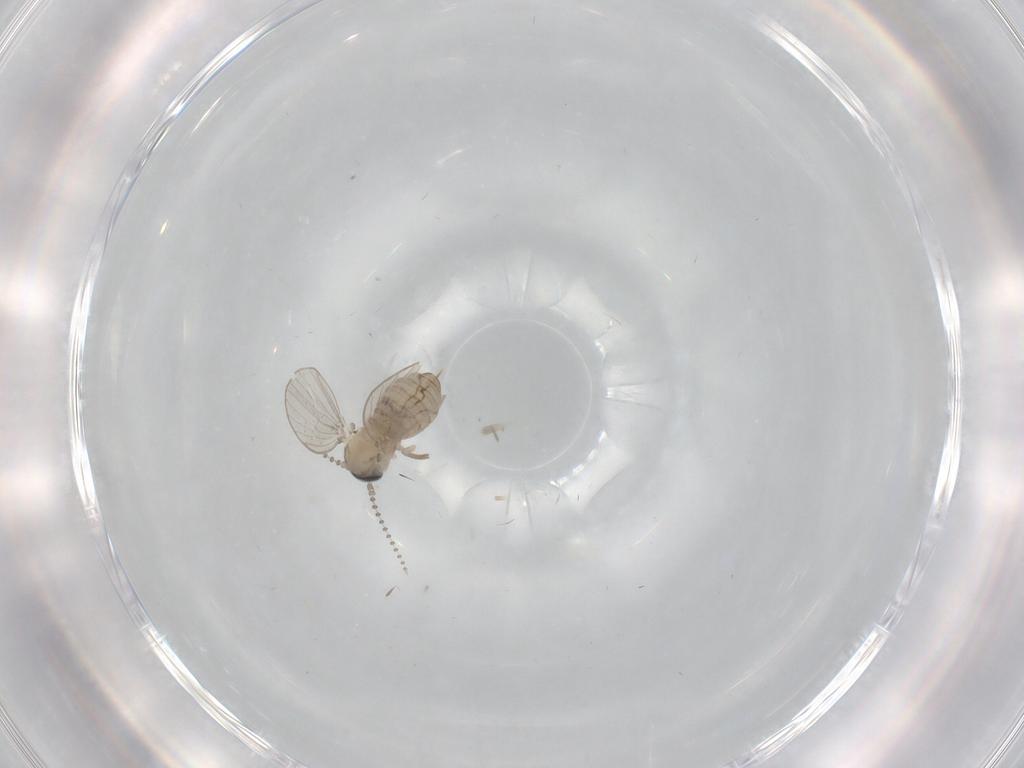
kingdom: Animalia
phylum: Arthropoda
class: Insecta
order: Diptera
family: Psychodidae
